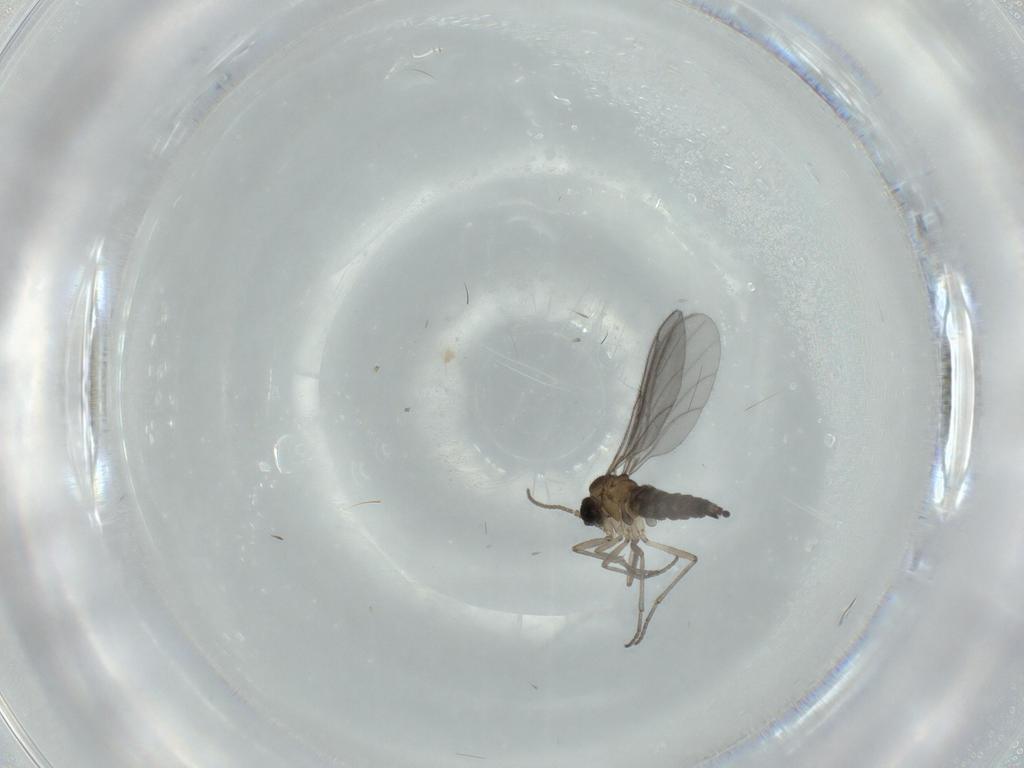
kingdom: Animalia
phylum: Arthropoda
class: Insecta
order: Diptera
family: Sciaridae
